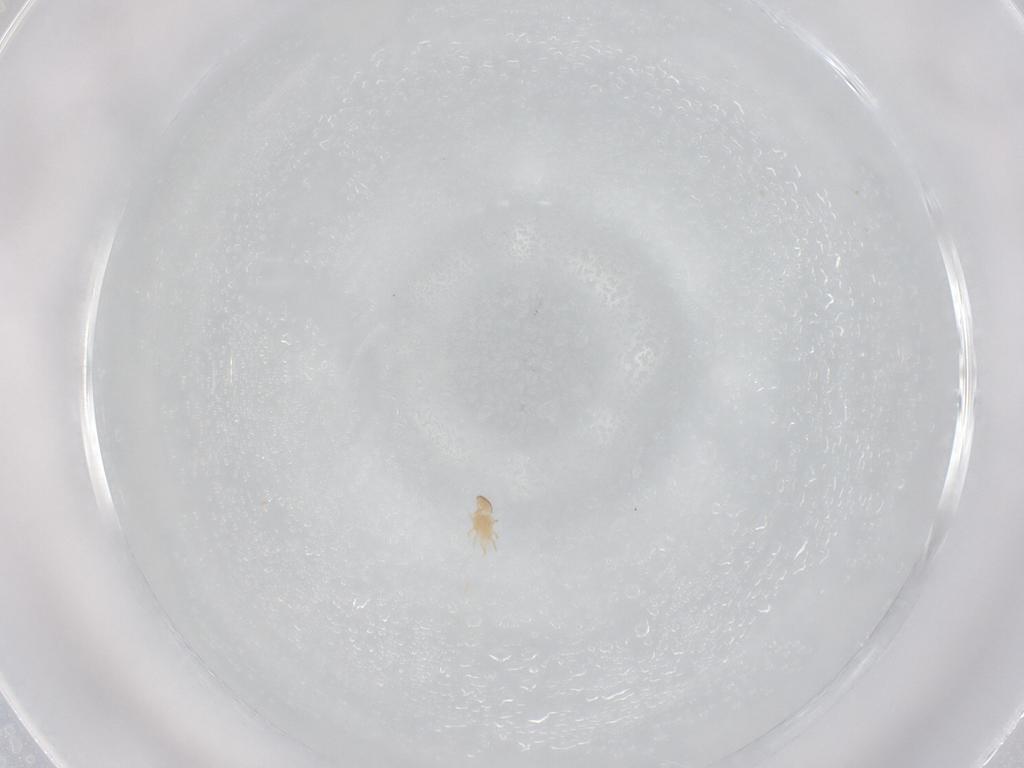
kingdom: Animalia
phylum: Arthropoda
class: Arachnida
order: Mesostigmata
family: Blattisociidae
